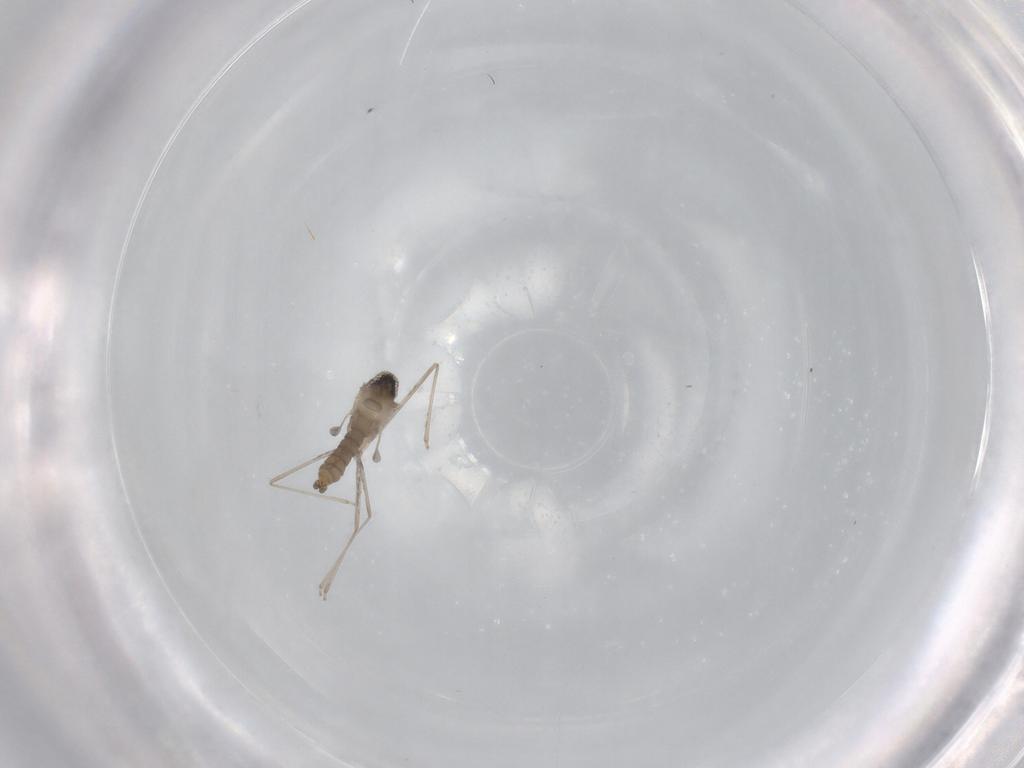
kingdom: Animalia
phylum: Arthropoda
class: Insecta
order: Diptera
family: Cecidomyiidae
